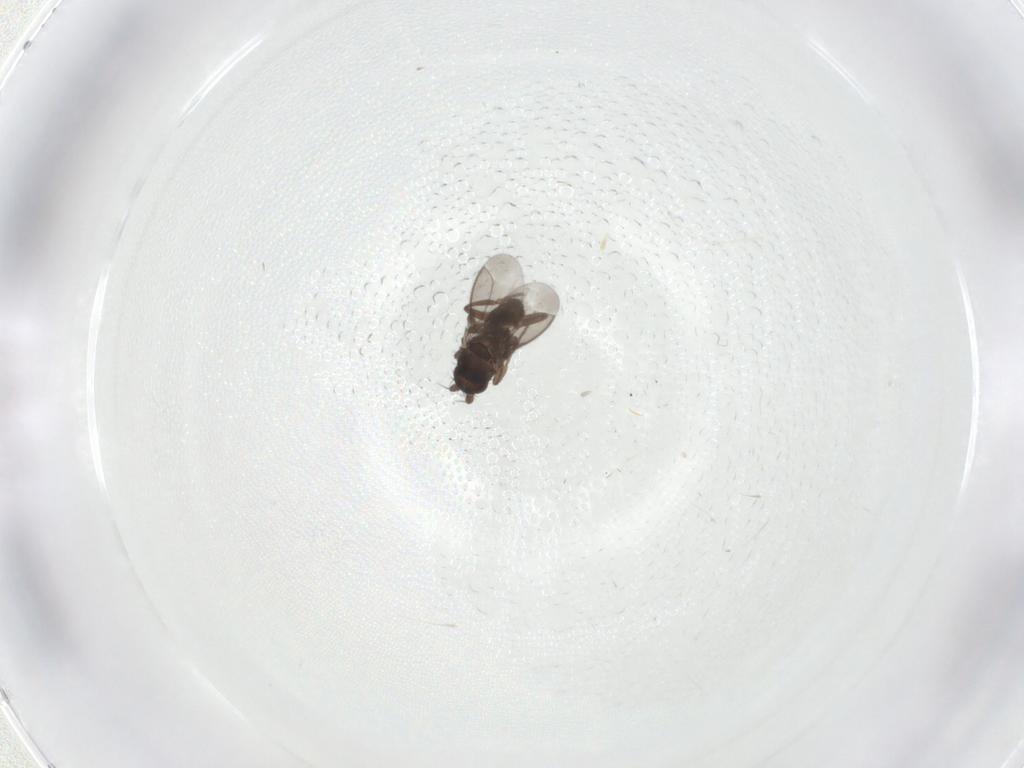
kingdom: Animalia
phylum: Arthropoda
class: Insecta
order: Diptera
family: Sphaeroceridae
